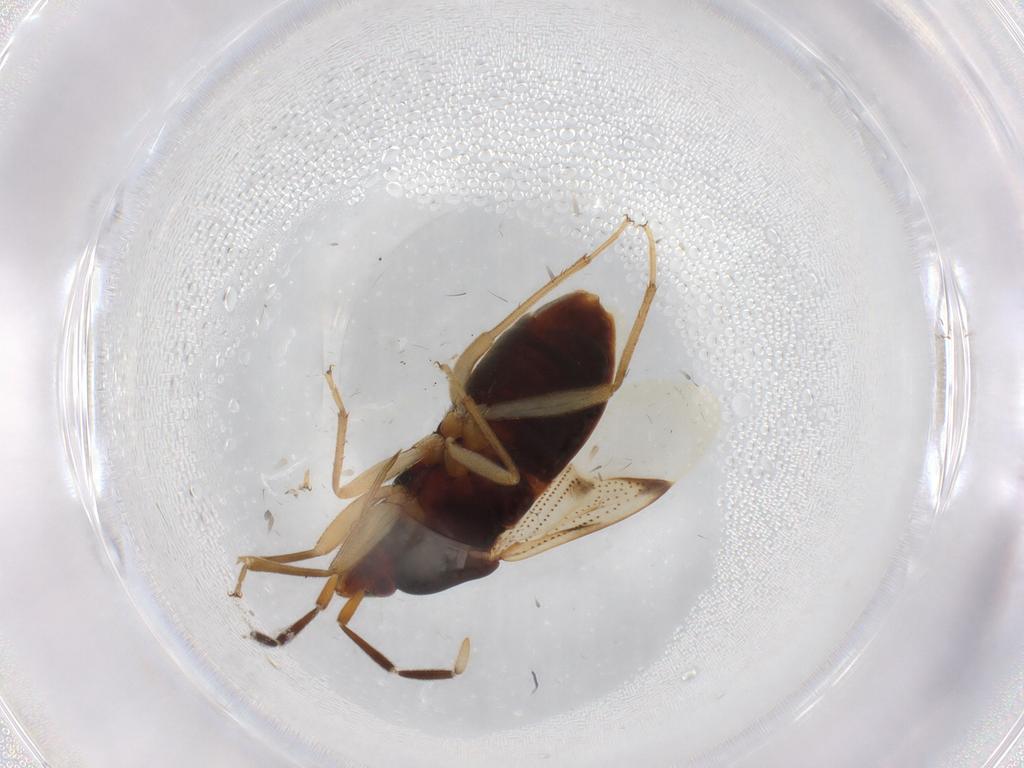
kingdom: Animalia
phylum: Arthropoda
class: Insecta
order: Hemiptera
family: Rhyparochromidae
